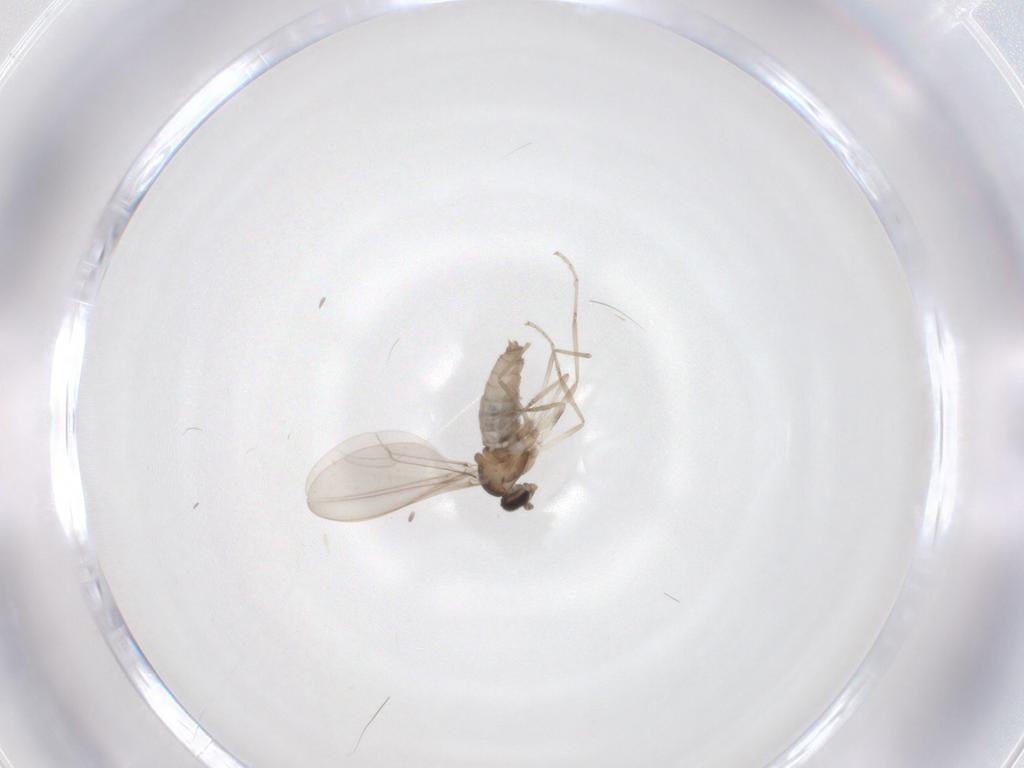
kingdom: Animalia
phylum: Arthropoda
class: Insecta
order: Diptera
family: Cecidomyiidae
